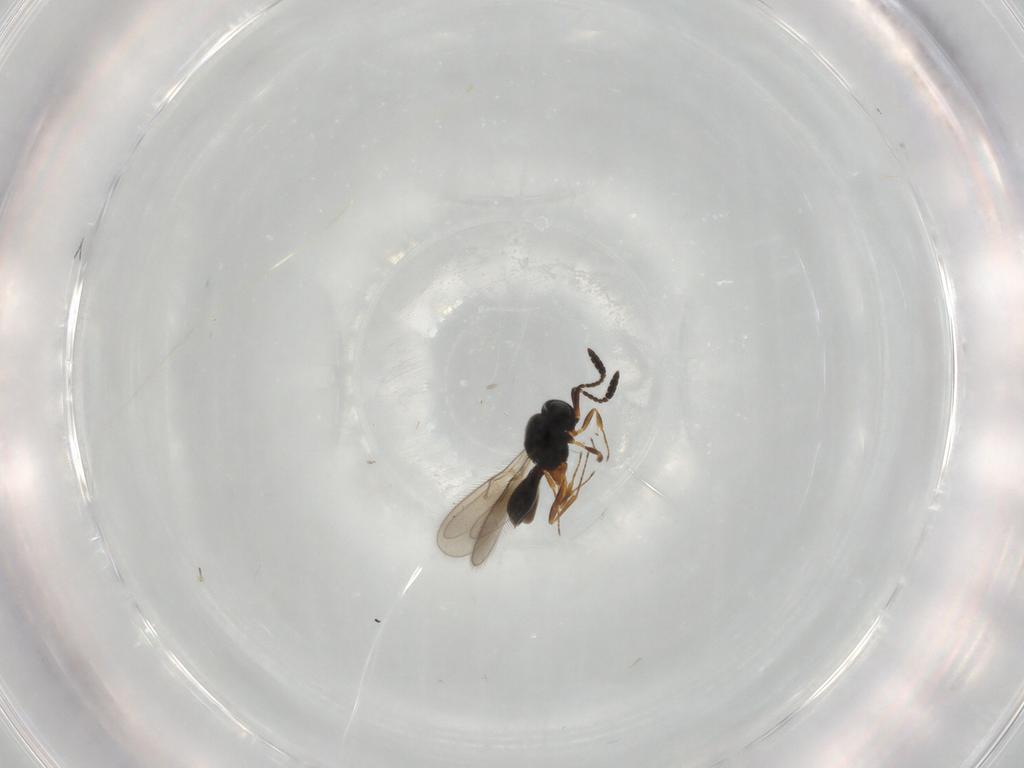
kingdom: Animalia
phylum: Arthropoda
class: Insecta
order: Hymenoptera
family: Scelionidae
